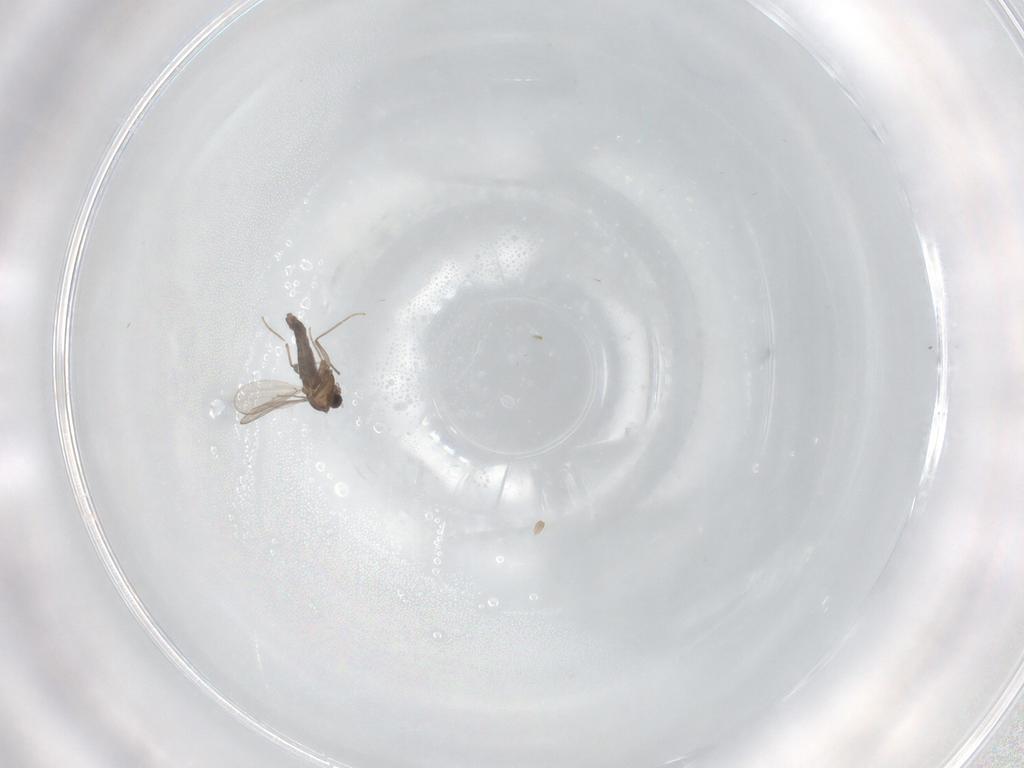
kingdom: Animalia
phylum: Arthropoda
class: Insecta
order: Diptera
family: Chironomidae
